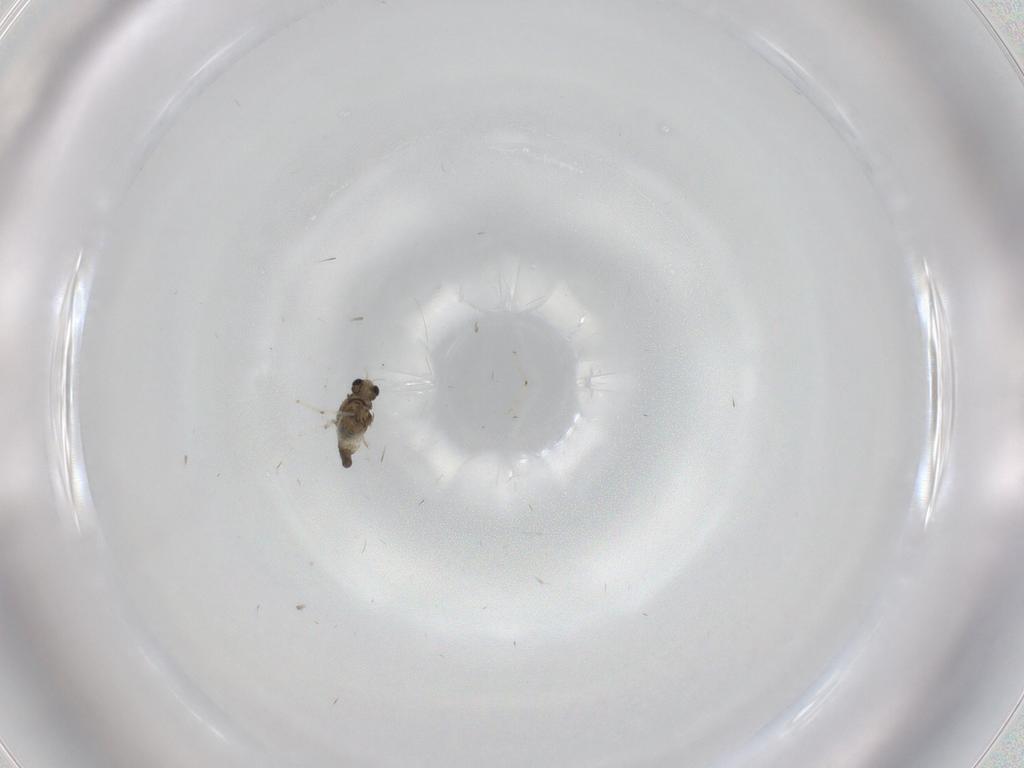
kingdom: Animalia
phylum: Arthropoda
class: Insecta
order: Diptera
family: Chironomidae
